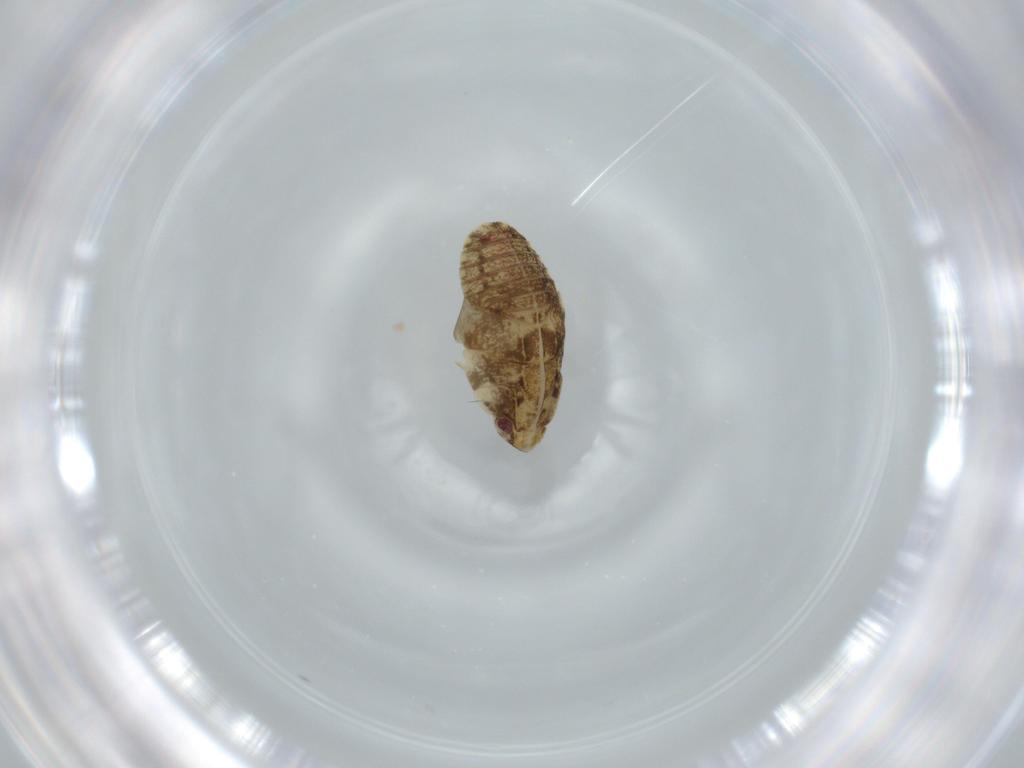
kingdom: Animalia
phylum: Arthropoda
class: Insecta
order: Hemiptera
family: Flatidae
